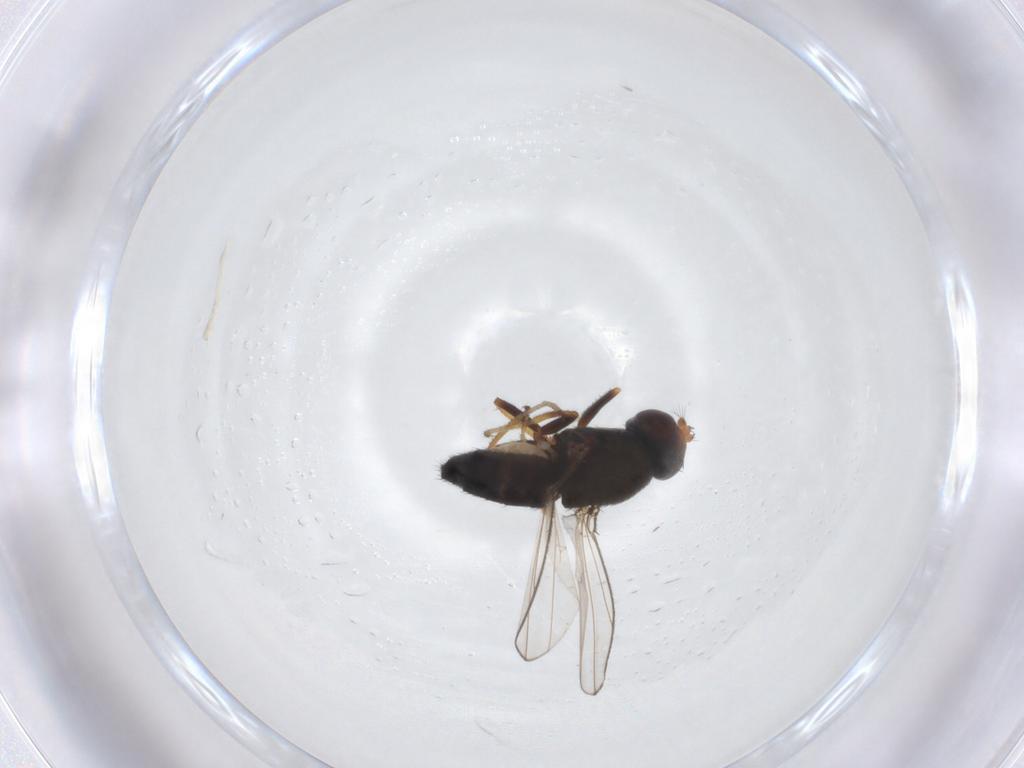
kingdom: Animalia
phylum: Arthropoda
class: Insecta
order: Diptera
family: Ephydridae
